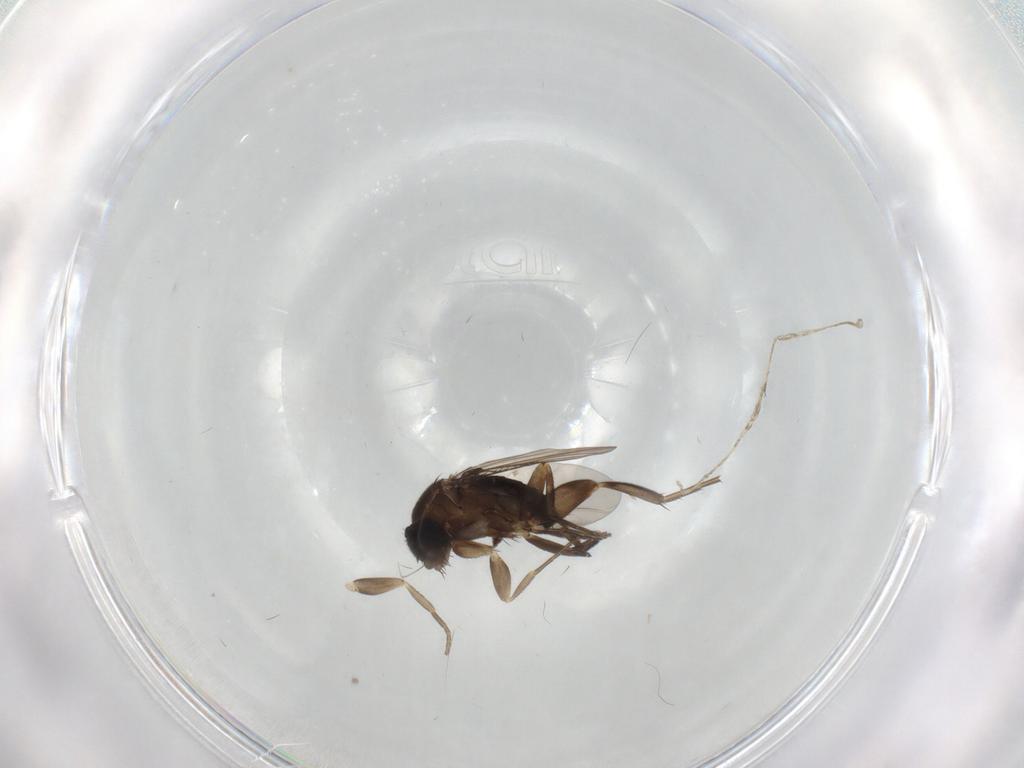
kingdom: Animalia
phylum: Arthropoda
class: Insecta
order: Diptera
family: Phoridae
